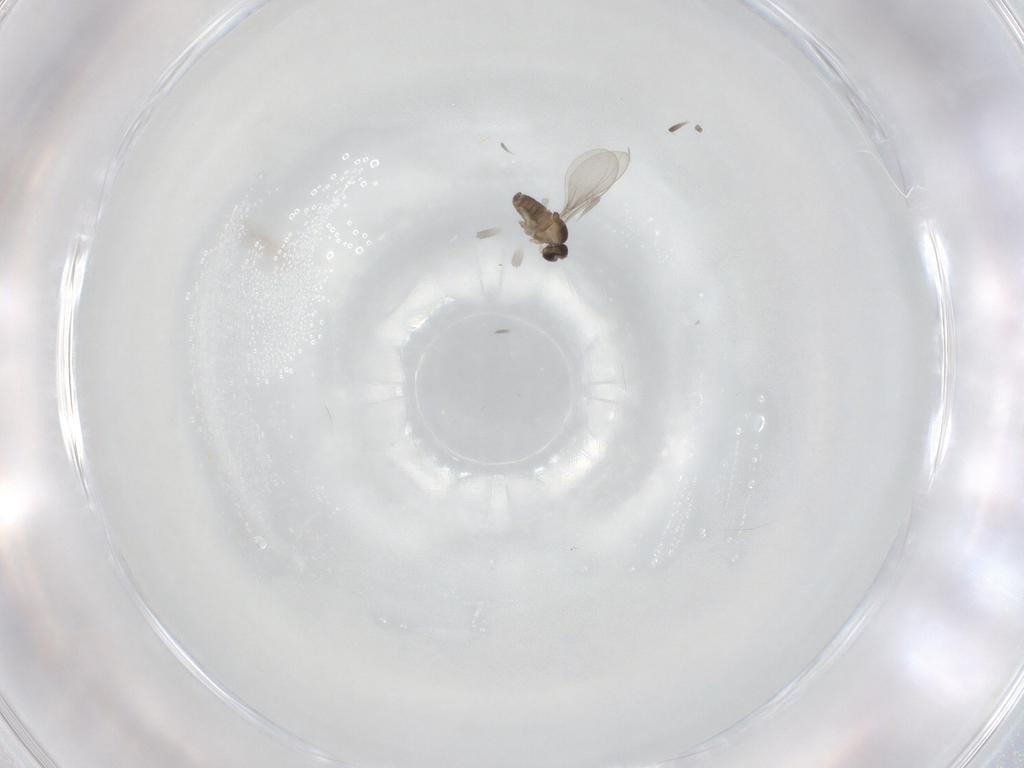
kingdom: Animalia
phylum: Arthropoda
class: Insecta
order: Diptera
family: Cecidomyiidae
